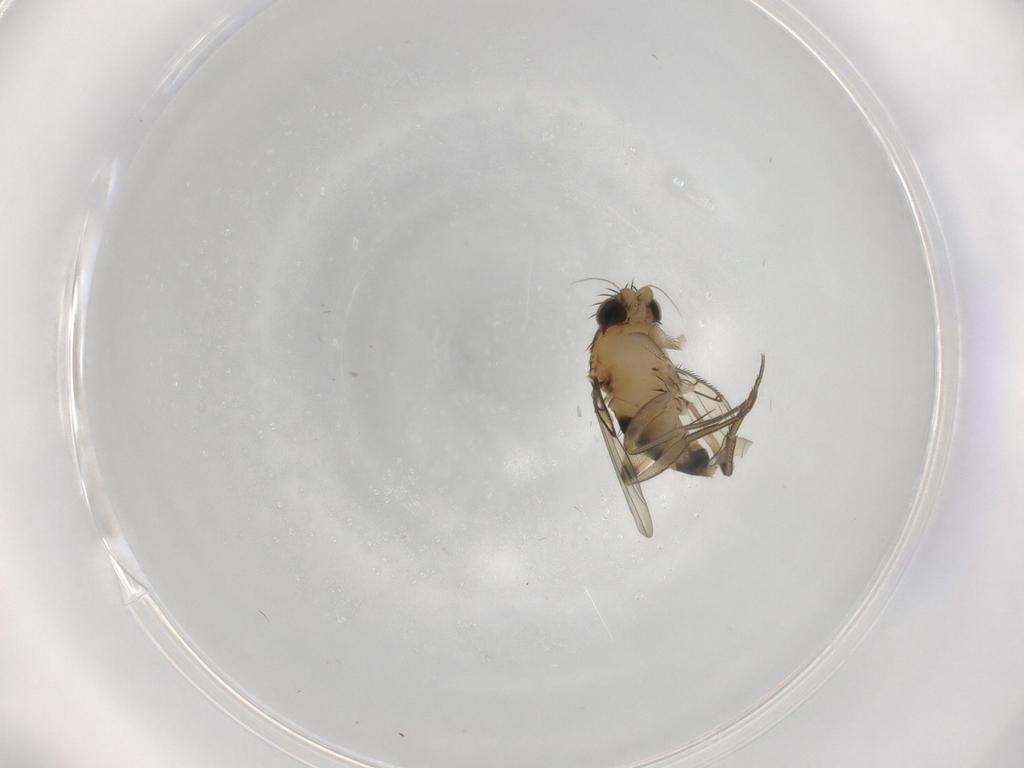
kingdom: Animalia
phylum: Arthropoda
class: Insecta
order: Diptera
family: Phoridae
